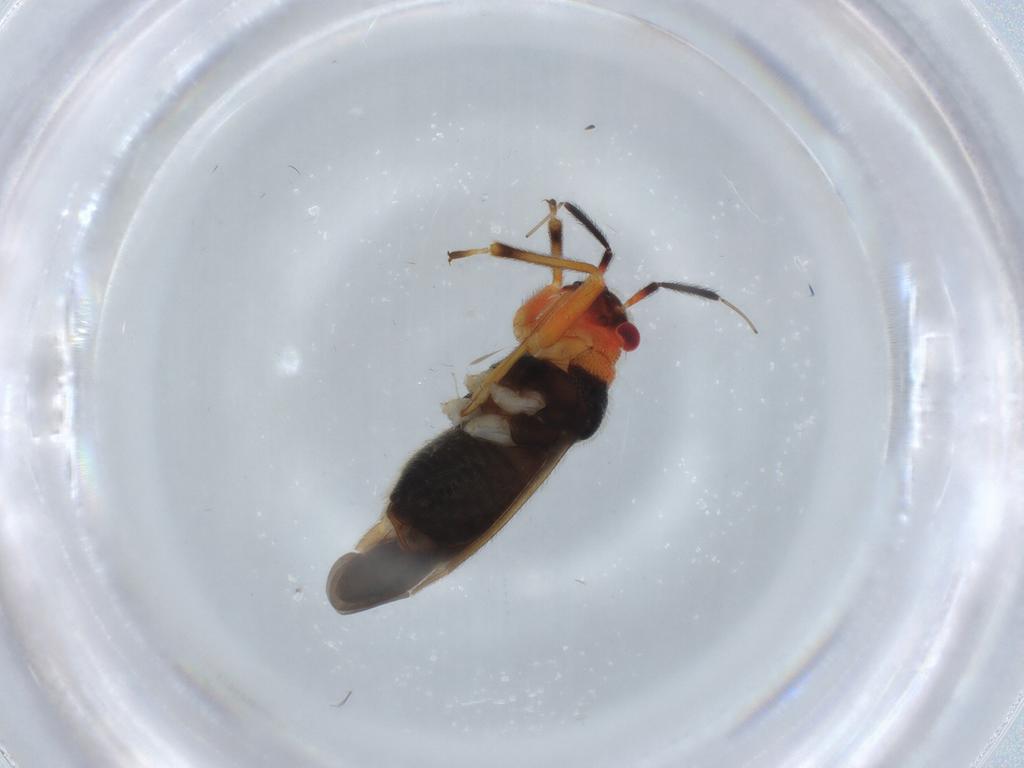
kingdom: Animalia
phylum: Arthropoda
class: Insecta
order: Hemiptera
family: Miridae
